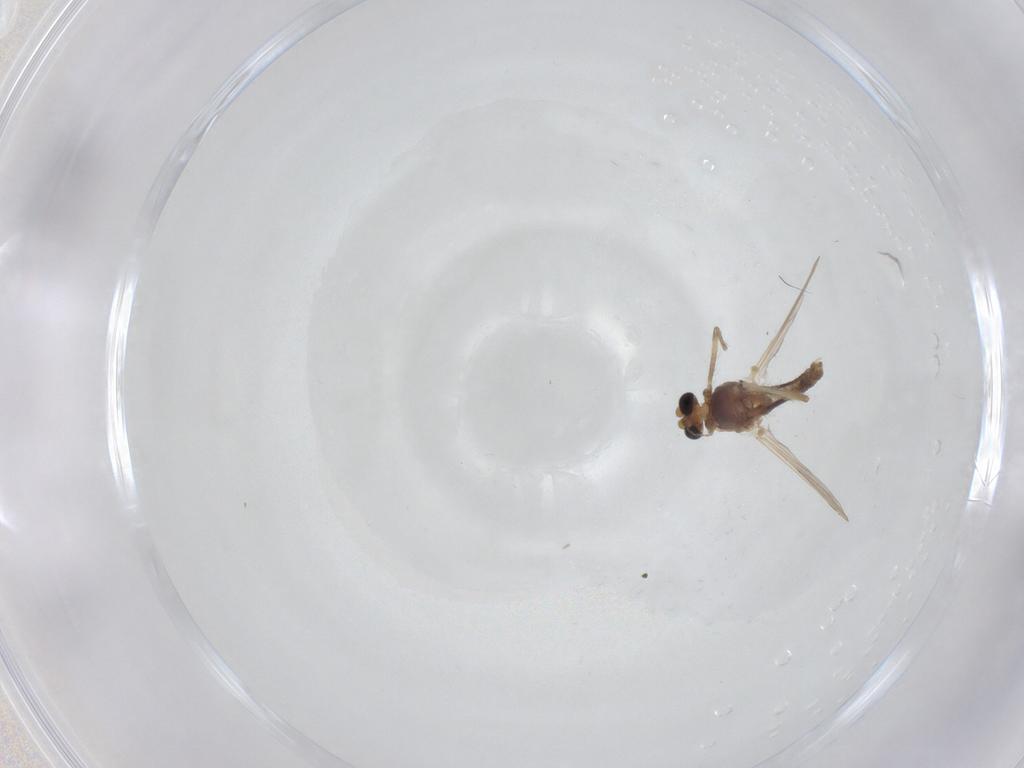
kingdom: Animalia
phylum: Arthropoda
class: Insecta
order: Diptera
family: Chironomidae
